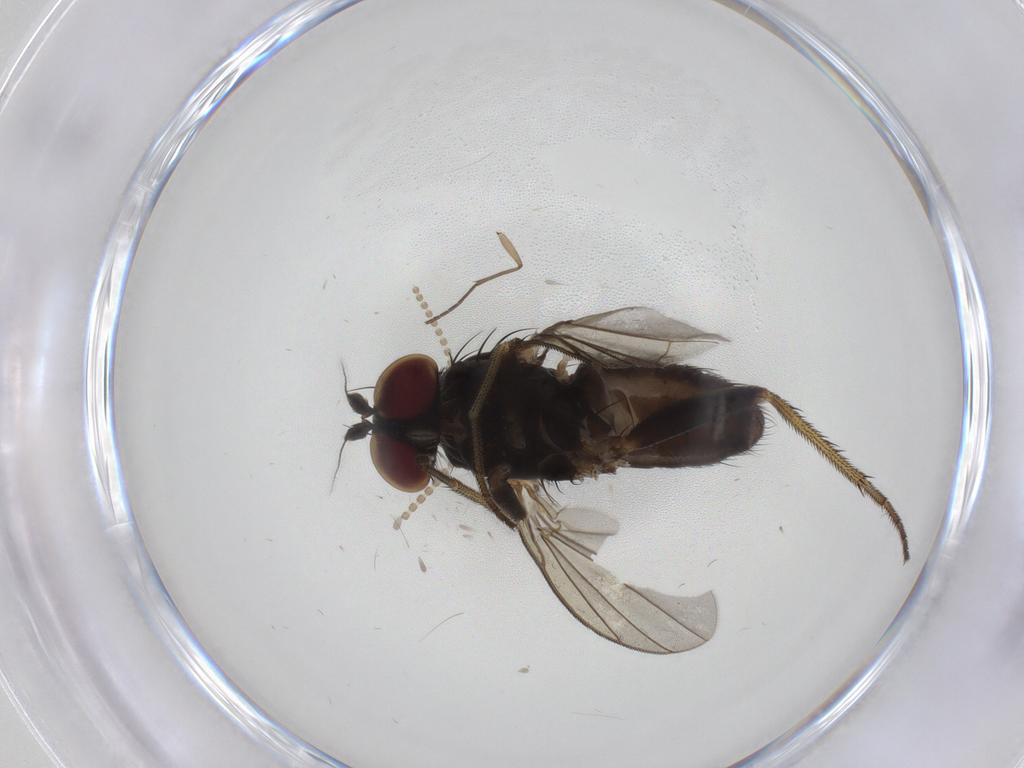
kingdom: Animalia
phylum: Arthropoda
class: Insecta
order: Diptera
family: Dolichopodidae
